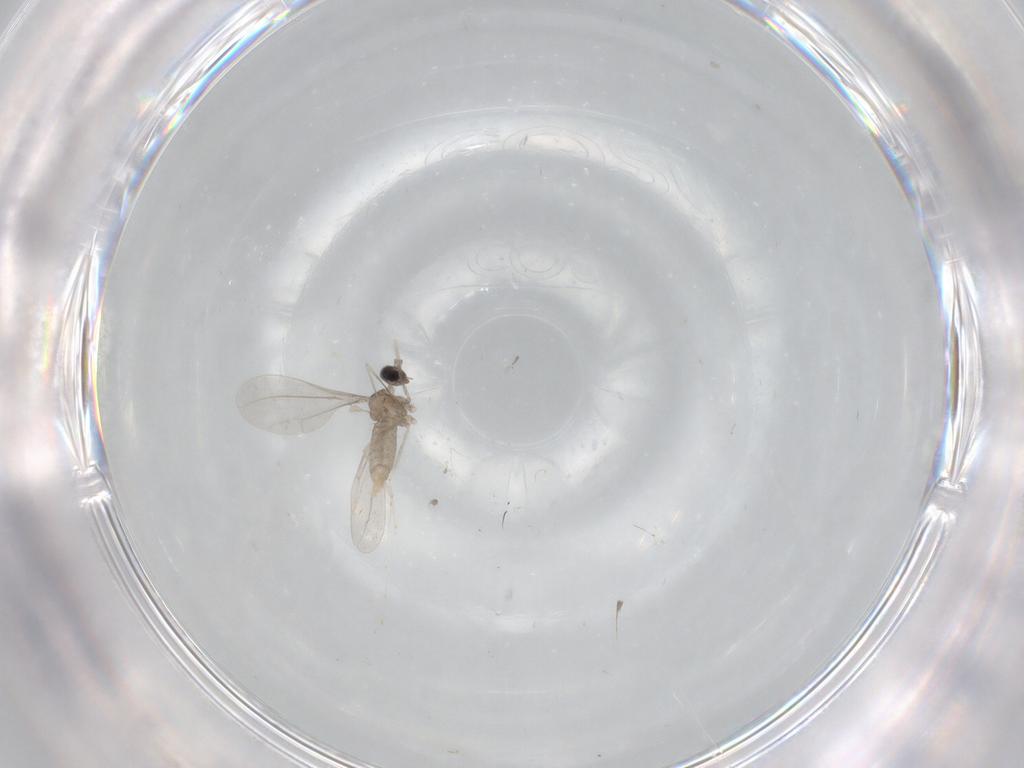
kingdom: Animalia
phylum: Arthropoda
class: Insecta
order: Diptera
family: Cecidomyiidae
